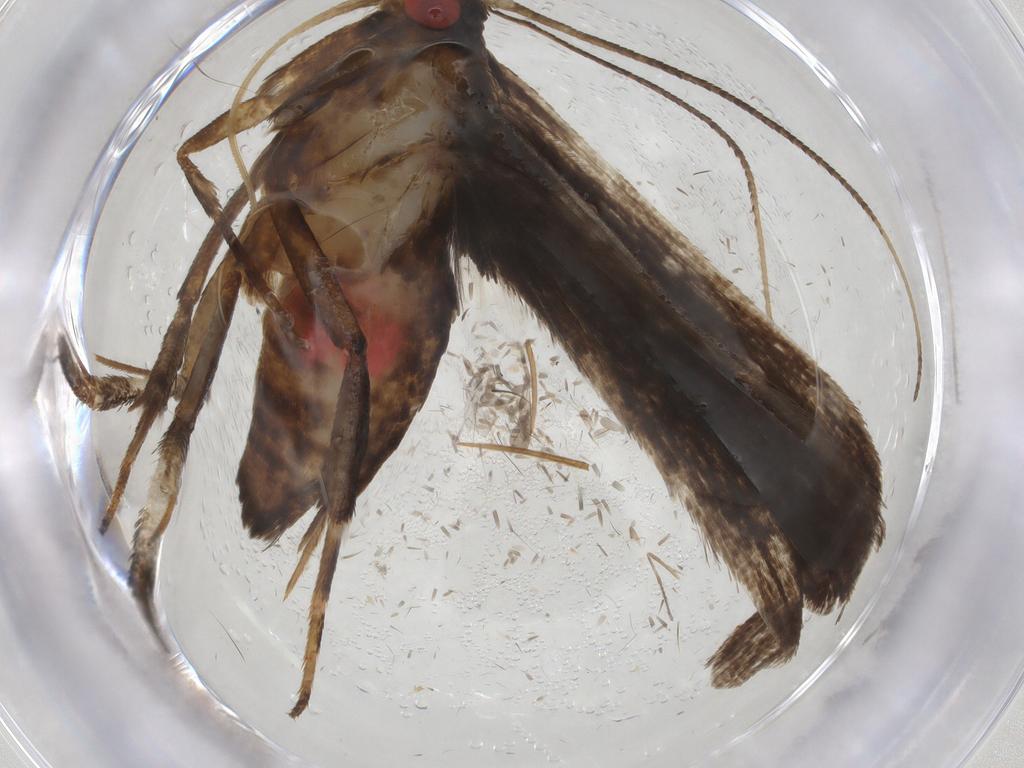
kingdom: Animalia
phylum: Arthropoda
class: Insecta
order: Lepidoptera
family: Gelechiidae
